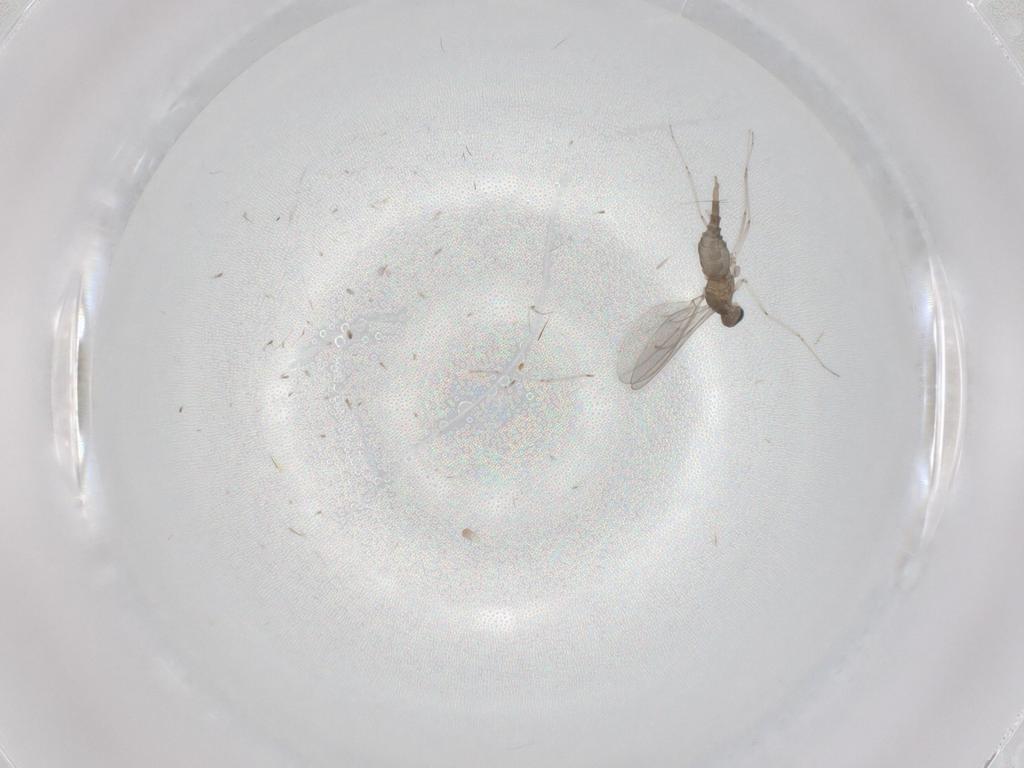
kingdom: Animalia
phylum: Arthropoda
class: Insecta
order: Diptera
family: Cecidomyiidae
